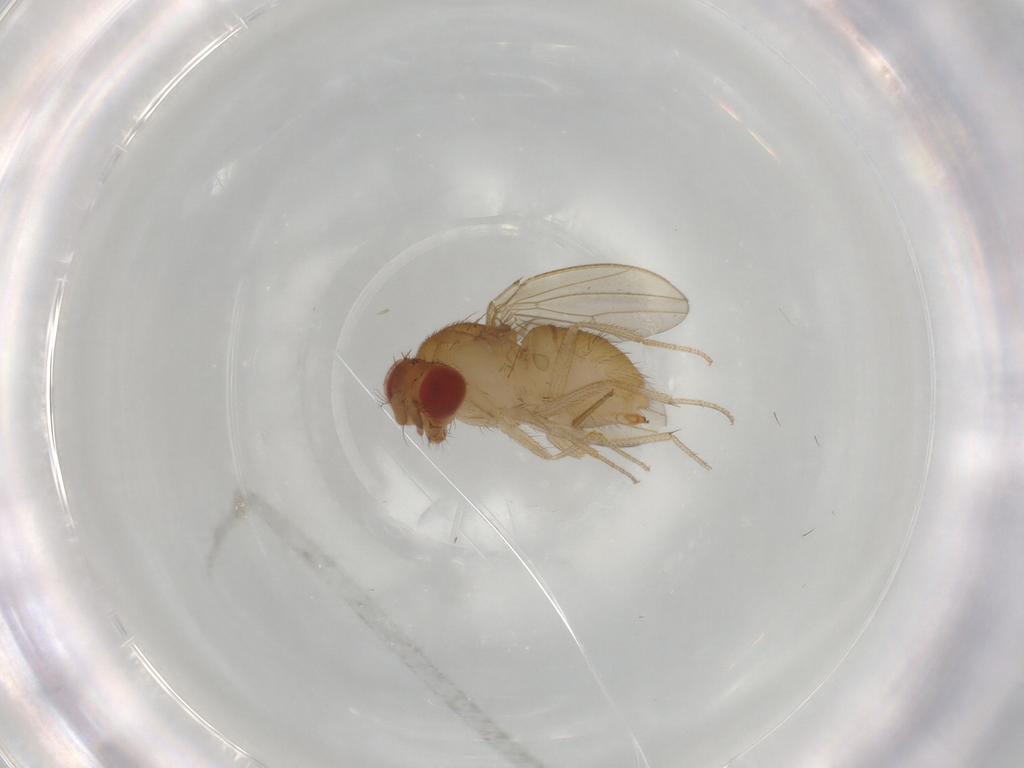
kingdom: Animalia
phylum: Arthropoda
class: Insecta
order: Diptera
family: Drosophilidae
